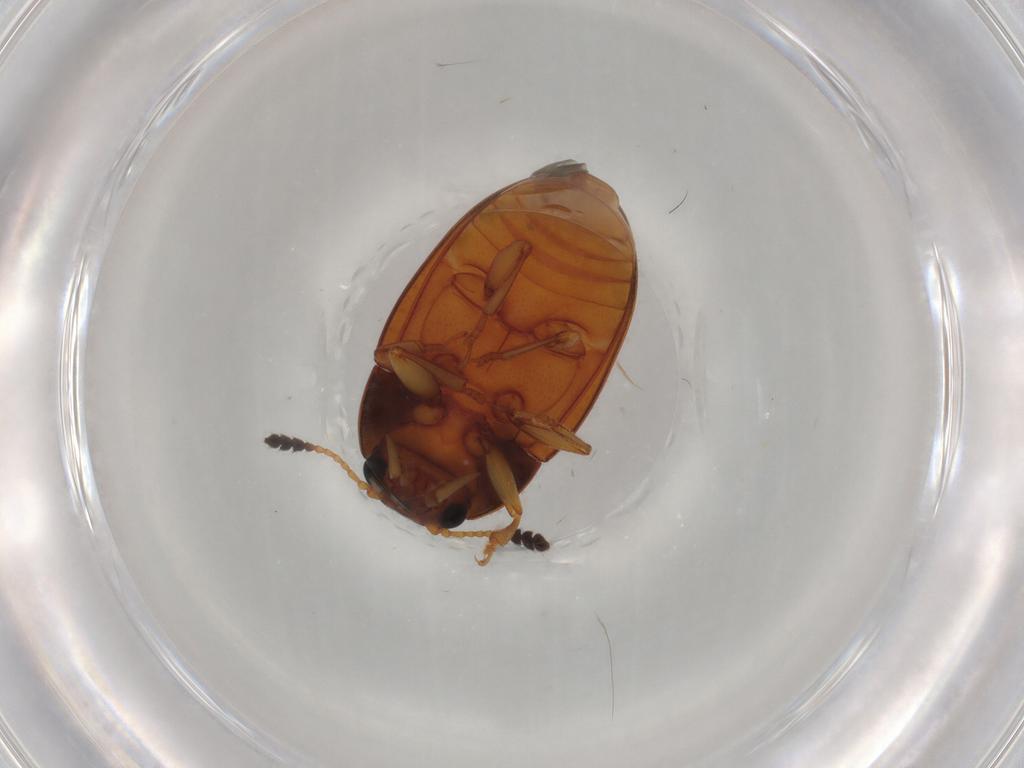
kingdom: Animalia
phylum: Arthropoda
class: Insecta
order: Coleoptera
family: Erotylidae
